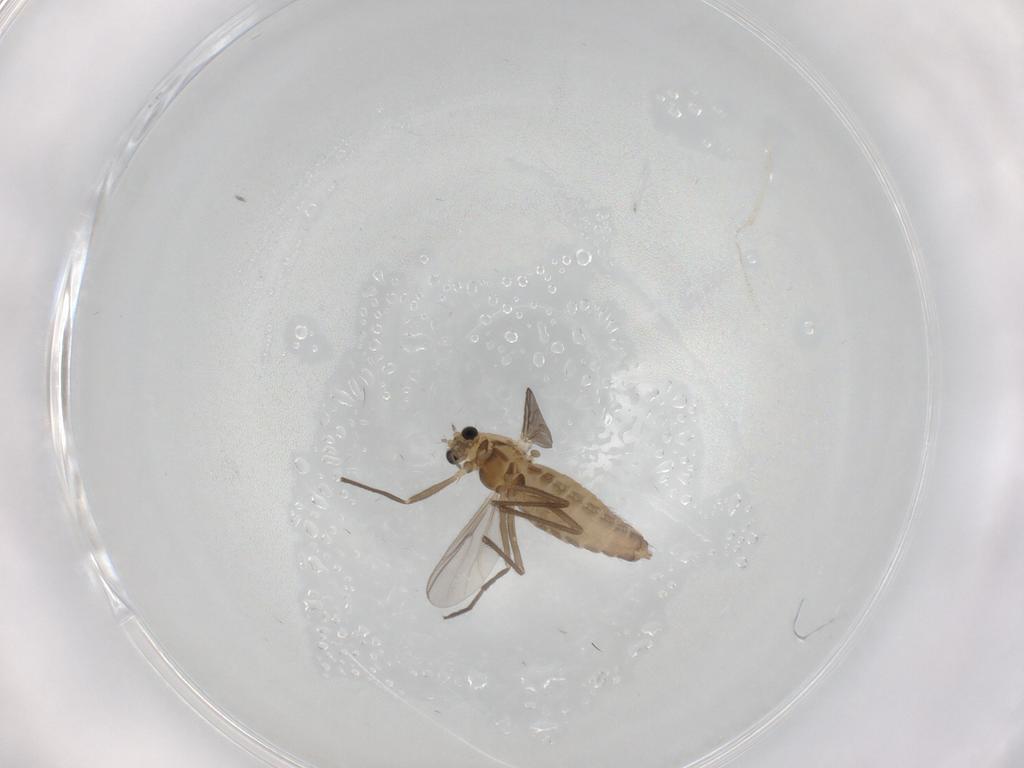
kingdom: Animalia
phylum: Arthropoda
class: Insecta
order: Diptera
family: Chironomidae
